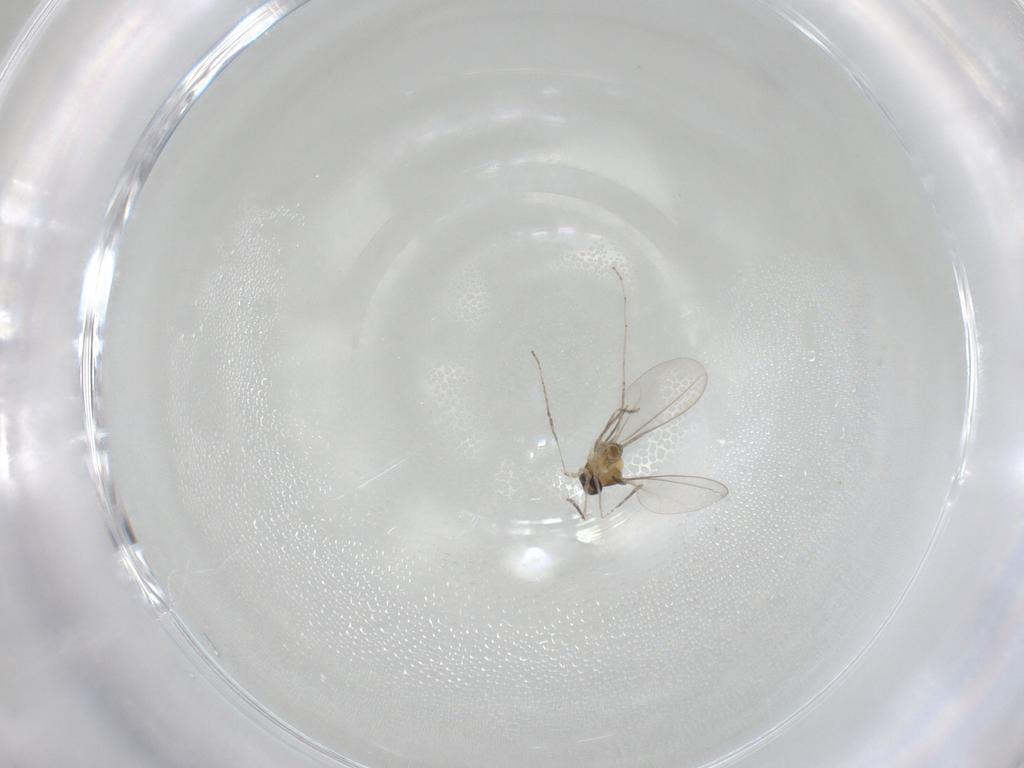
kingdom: Animalia
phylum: Arthropoda
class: Insecta
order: Diptera
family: Cecidomyiidae
